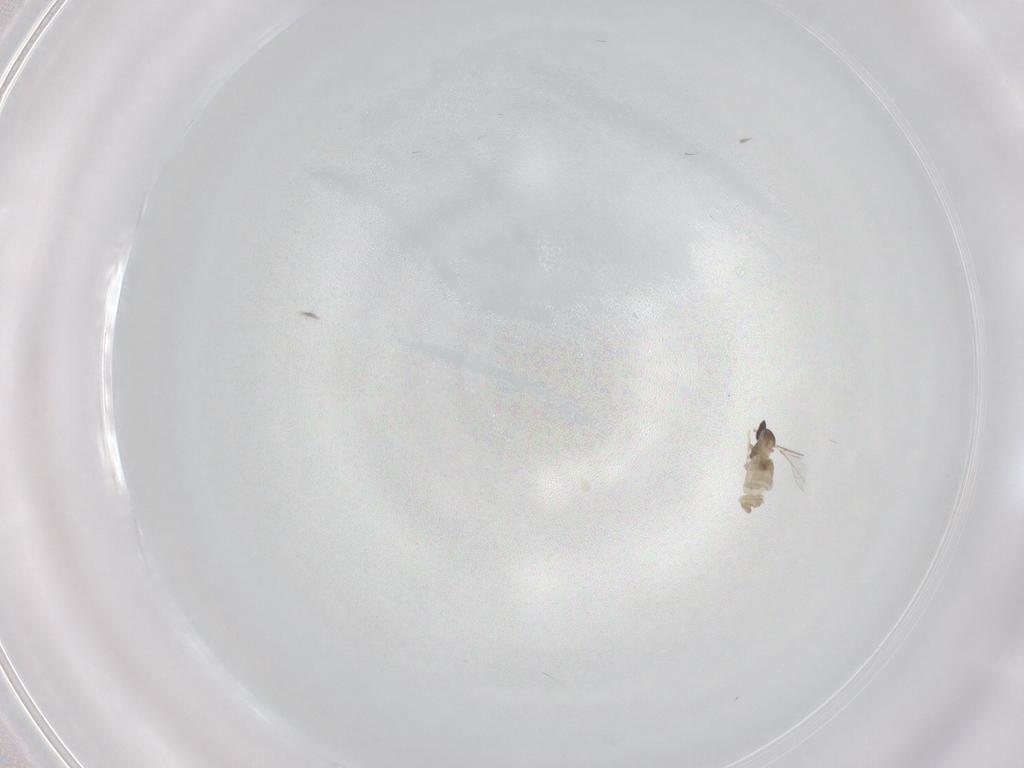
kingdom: Animalia
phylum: Arthropoda
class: Insecta
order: Diptera
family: Cecidomyiidae
